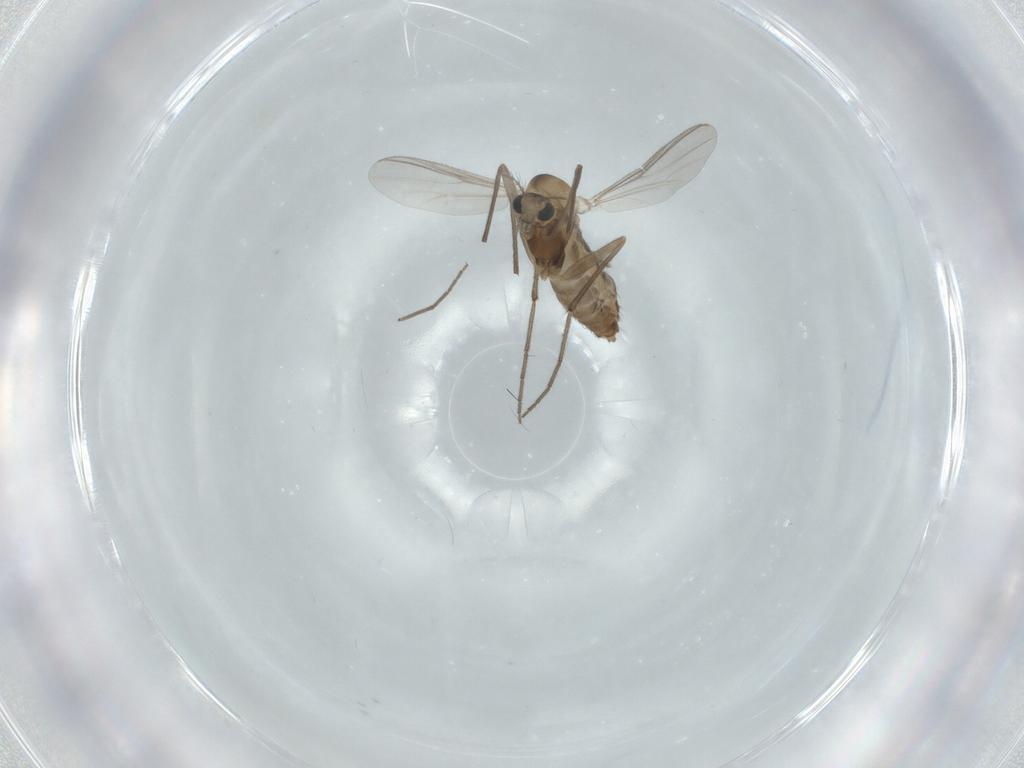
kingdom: Animalia
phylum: Arthropoda
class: Insecta
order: Diptera
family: Chironomidae
